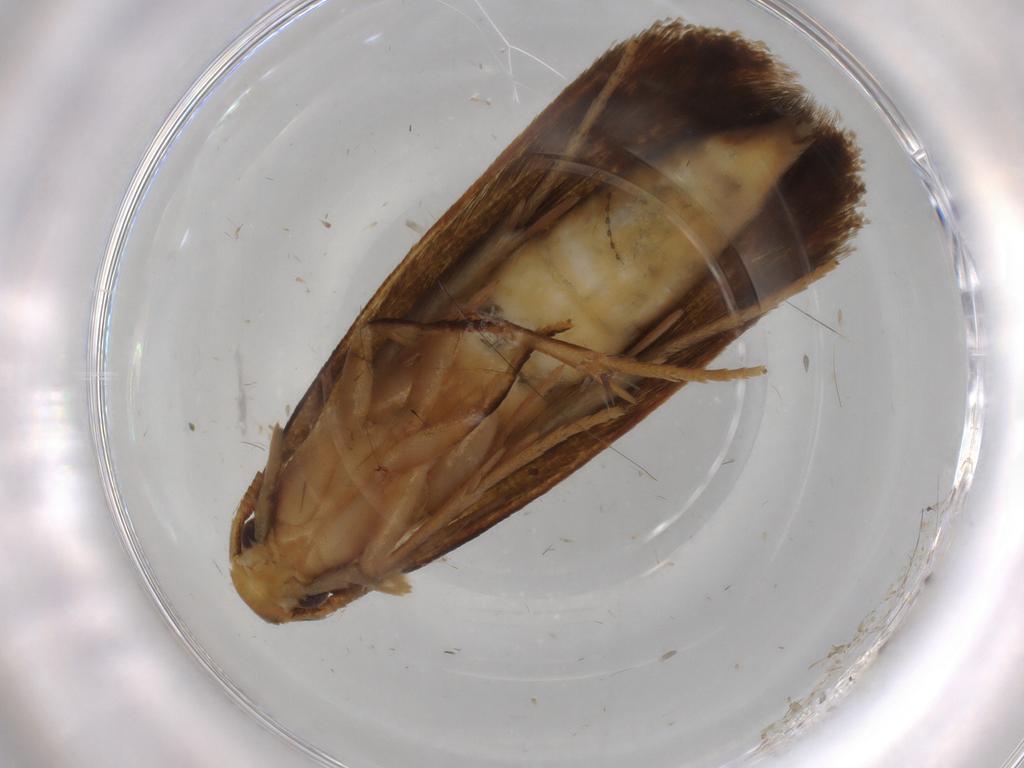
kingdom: Animalia
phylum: Arthropoda
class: Insecta
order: Lepidoptera
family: Tineidae
